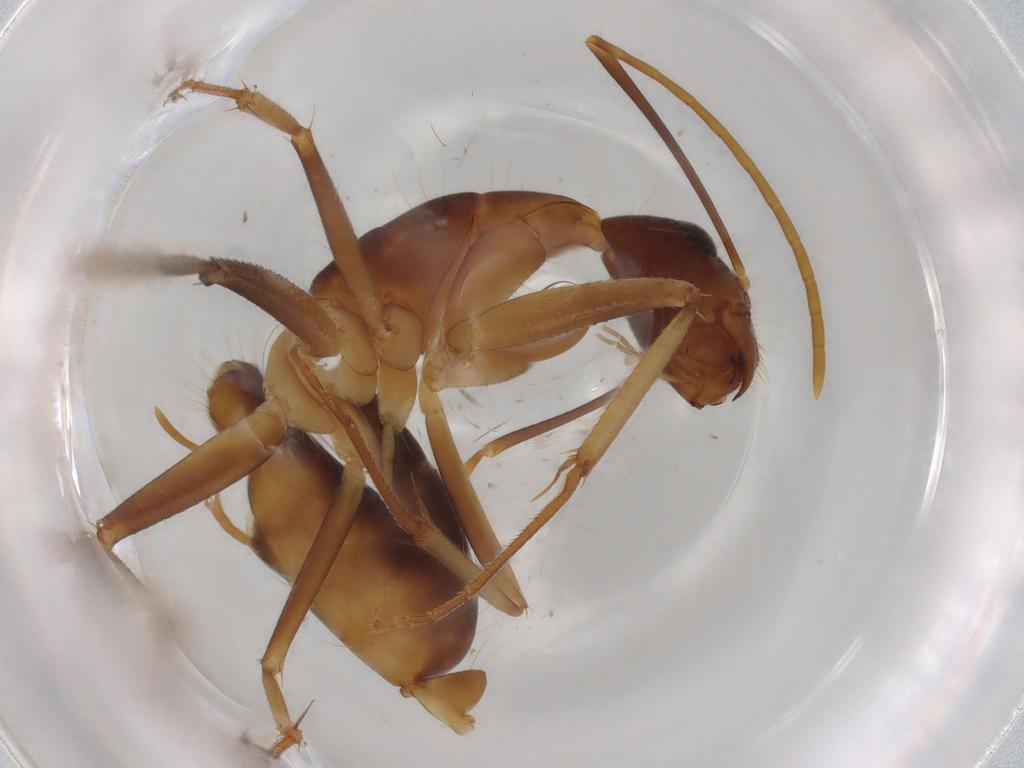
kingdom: Animalia
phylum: Arthropoda
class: Insecta
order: Hymenoptera
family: Formicidae
